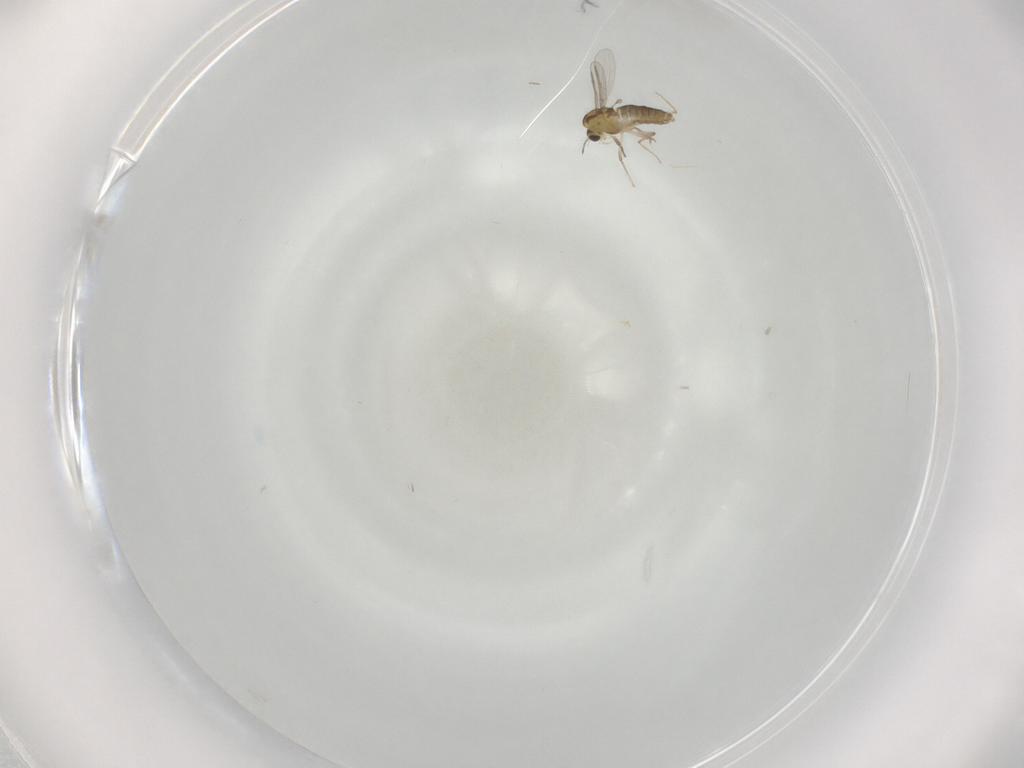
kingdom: Animalia
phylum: Arthropoda
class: Insecta
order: Diptera
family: Chironomidae
